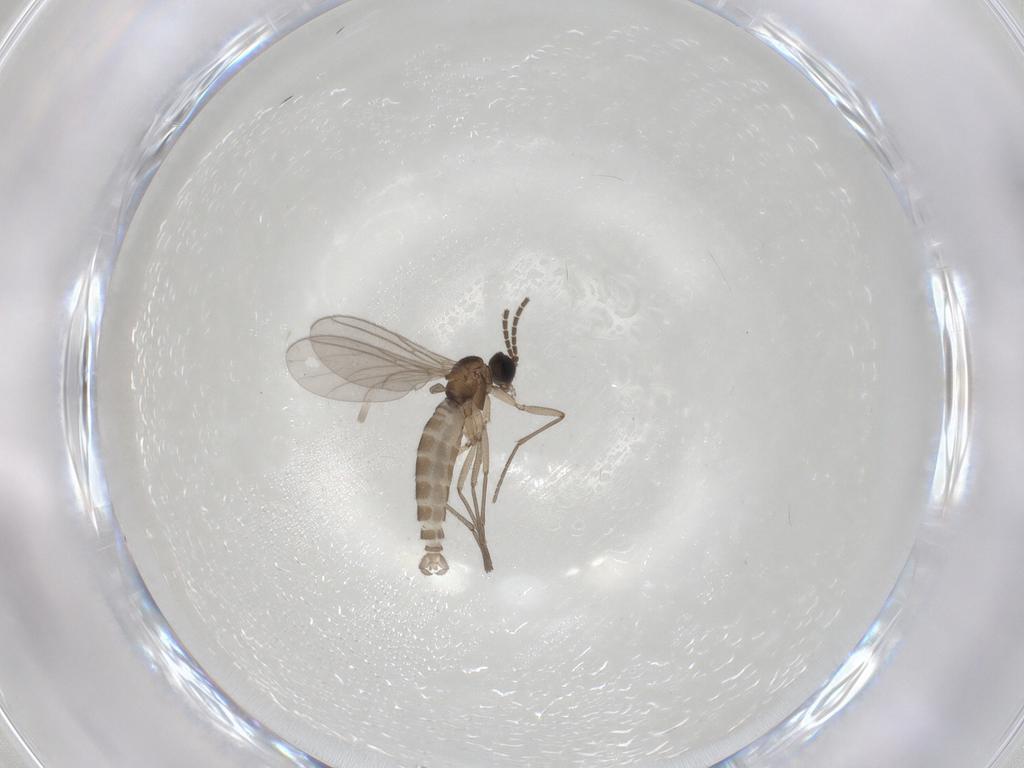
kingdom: Animalia
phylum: Arthropoda
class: Insecta
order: Diptera
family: Sciaridae
